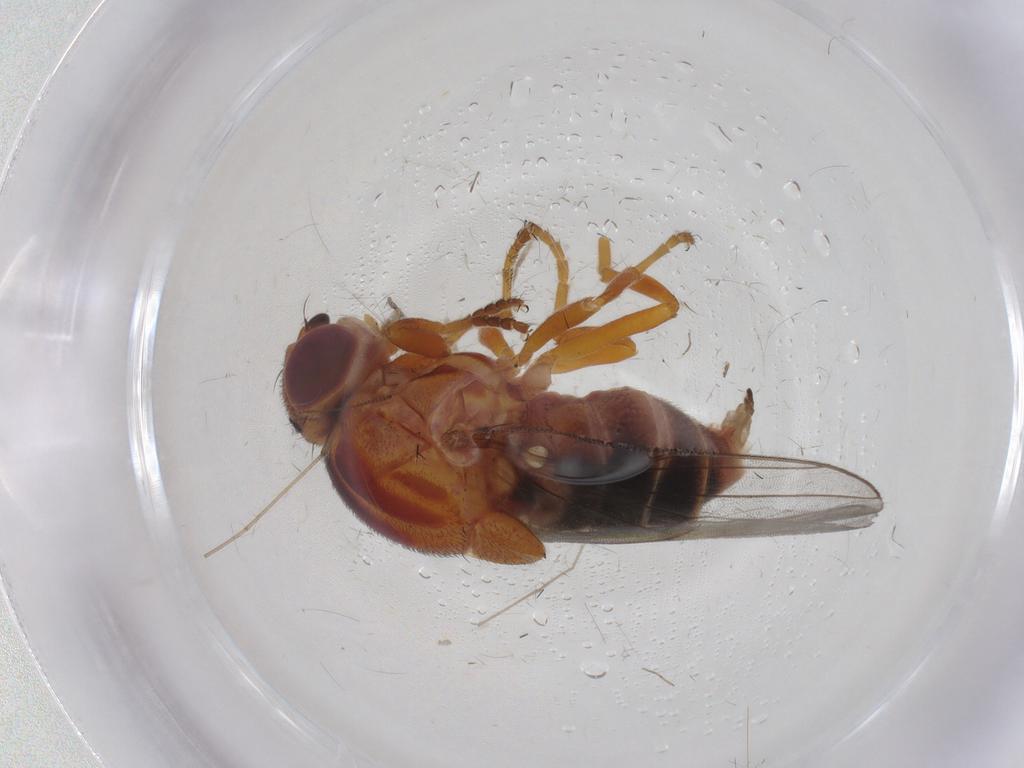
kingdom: Animalia
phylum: Arthropoda
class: Insecta
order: Diptera
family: Chloropidae
